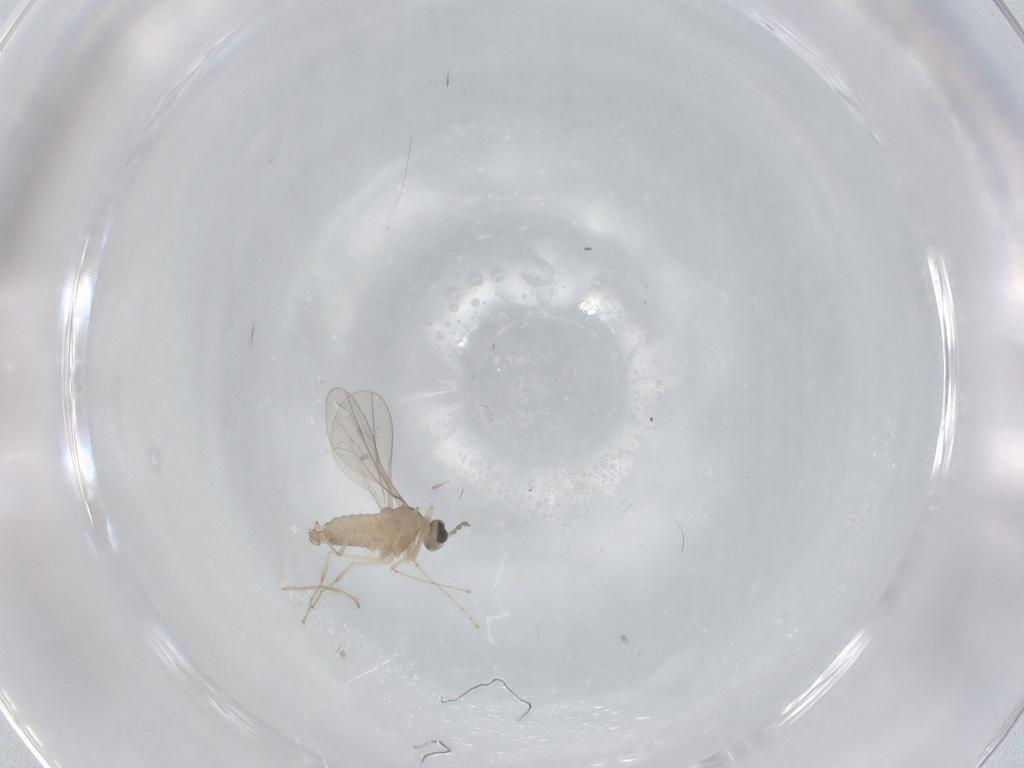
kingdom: Animalia
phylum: Arthropoda
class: Insecta
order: Diptera
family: Cecidomyiidae
